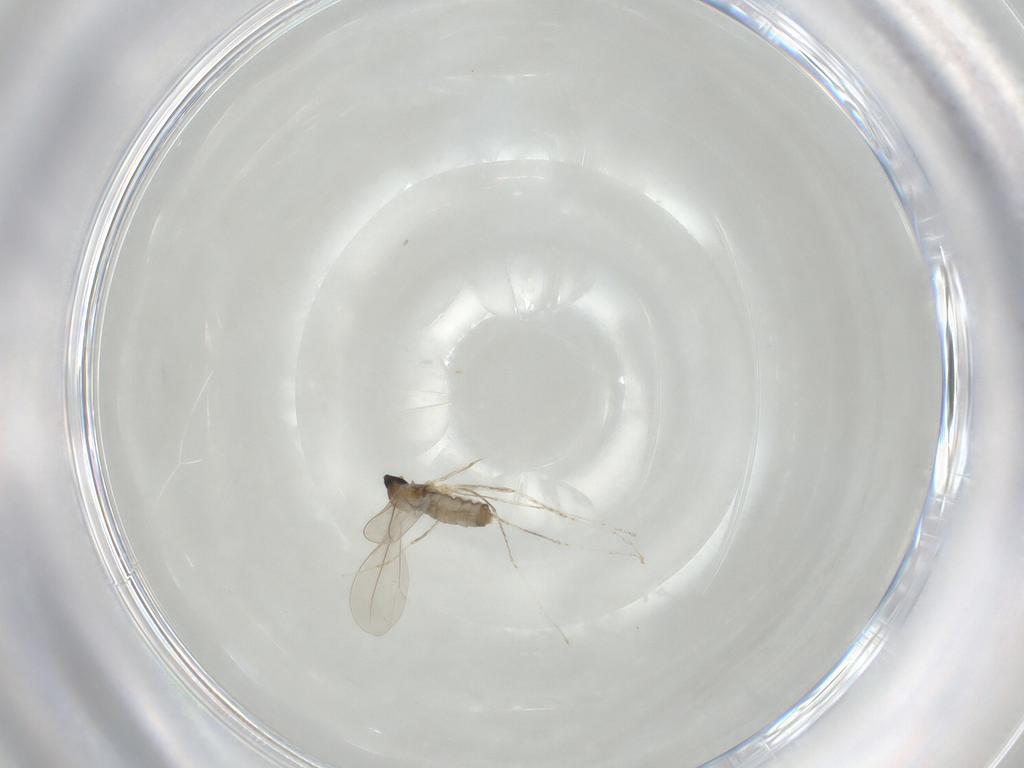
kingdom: Animalia
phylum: Arthropoda
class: Insecta
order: Diptera
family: Cecidomyiidae
